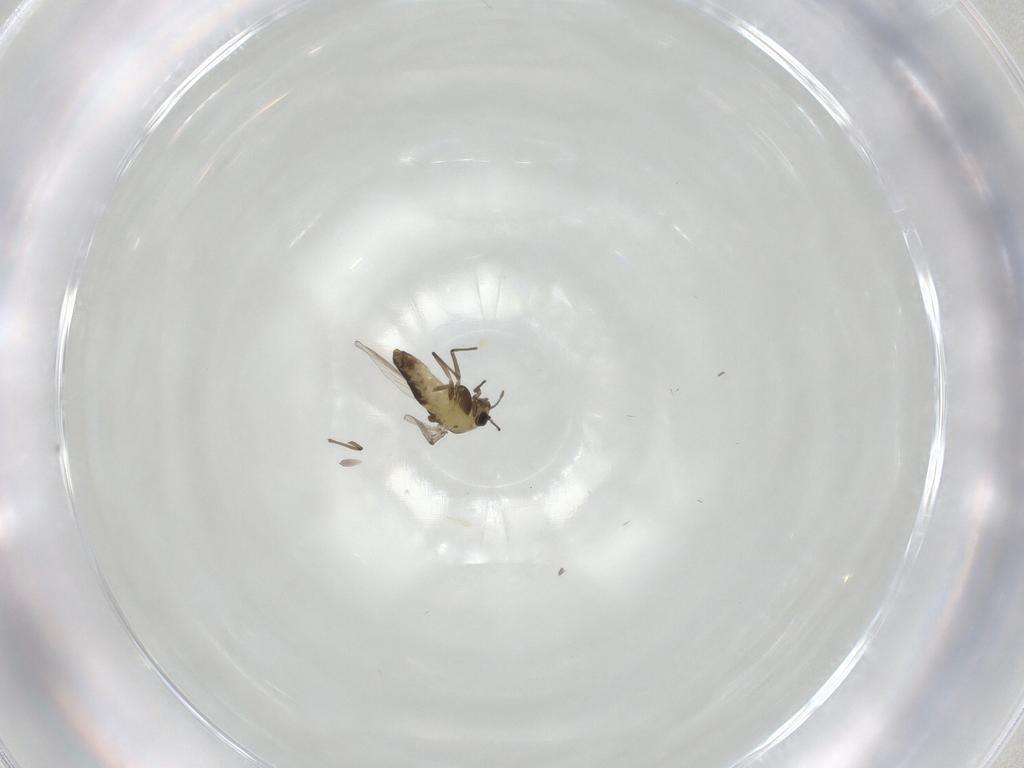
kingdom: Animalia
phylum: Arthropoda
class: Insecta
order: Diptera
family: Chironomidae
